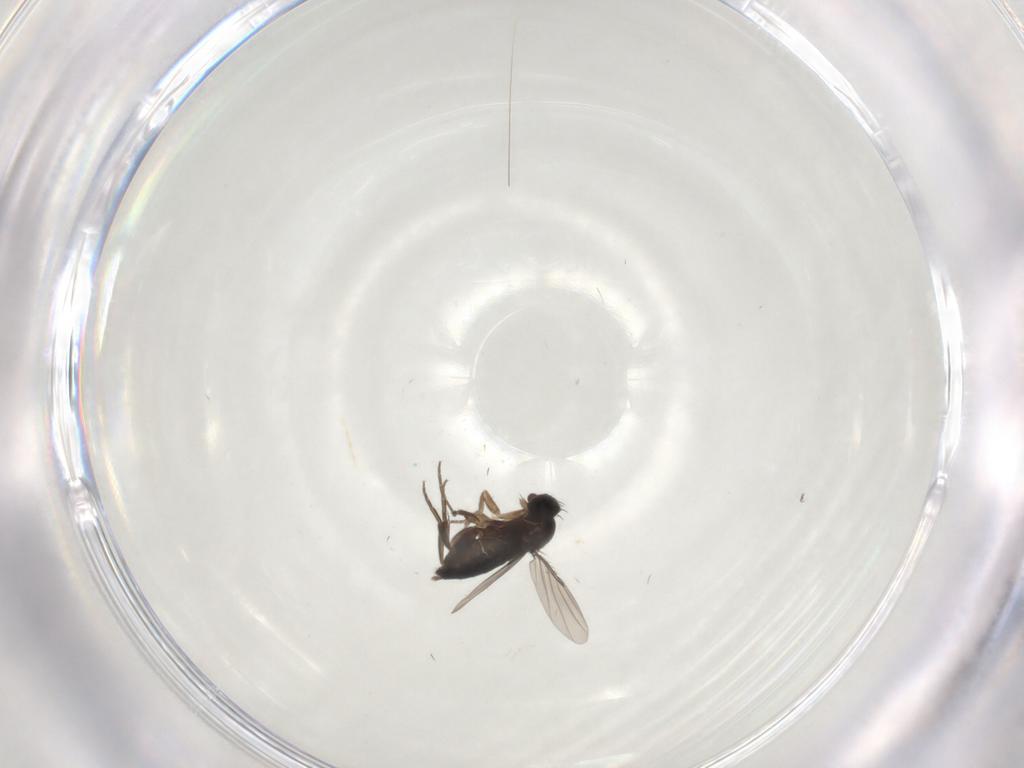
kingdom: Animalia
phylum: Arthropoda
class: Insecta
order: Diptera
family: Phoridae
